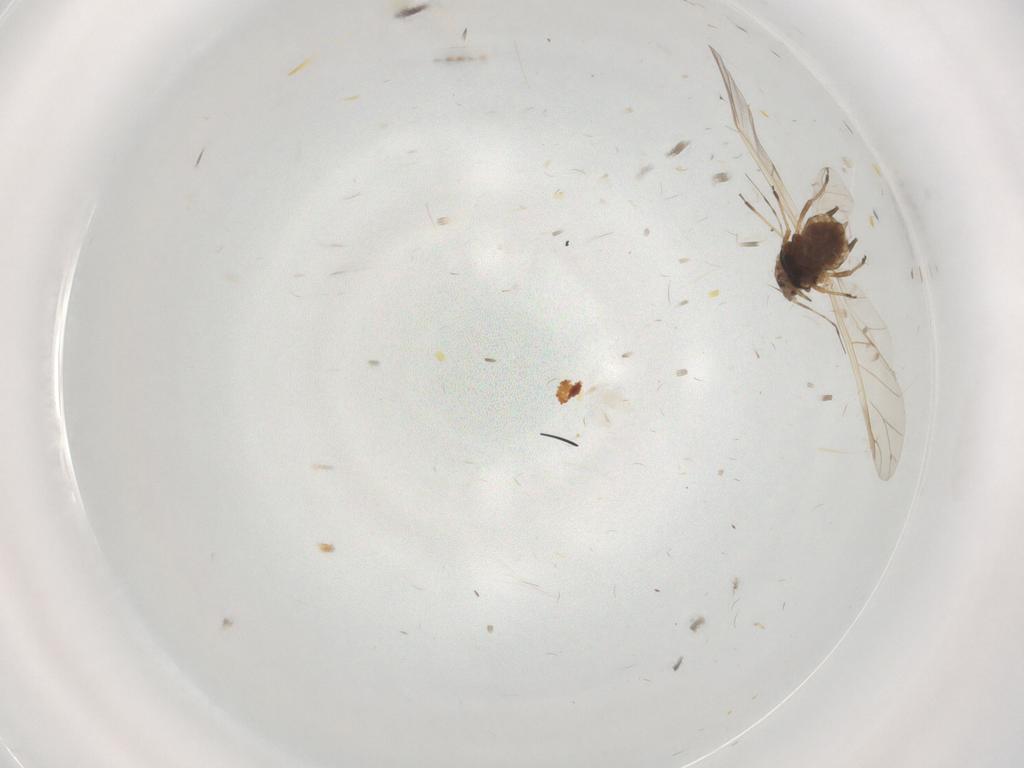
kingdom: Animalia
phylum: Arthropoda
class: Insecta
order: Hemiptera
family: Aphididae
